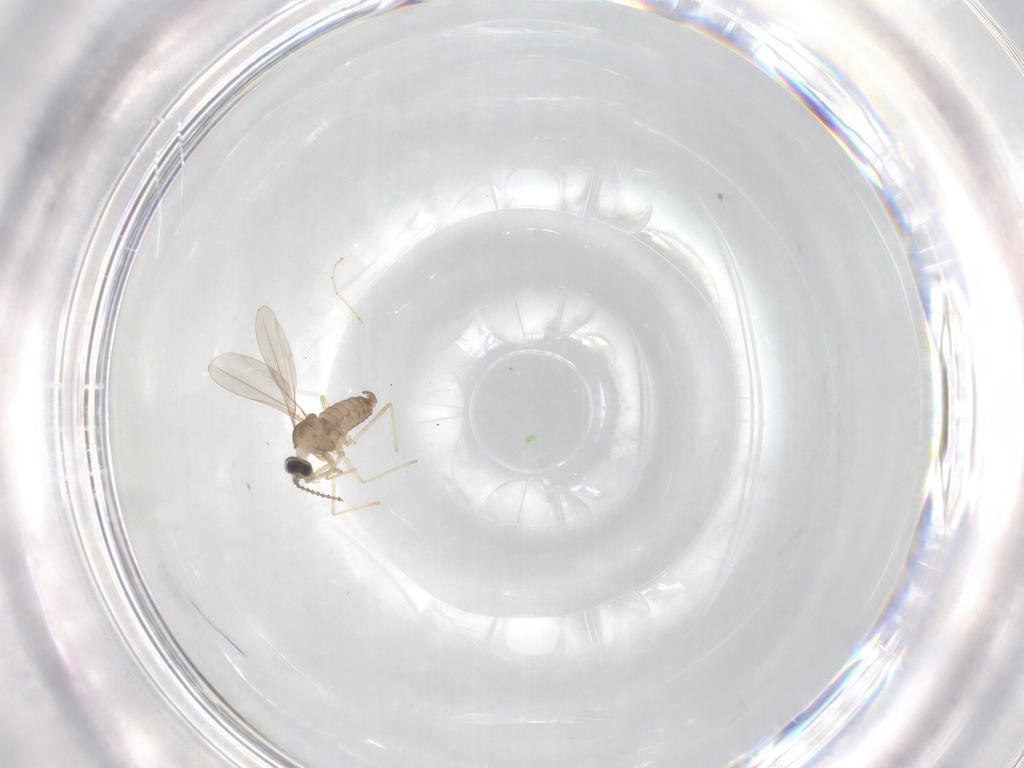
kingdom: Animalia
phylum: Arthropoda
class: Insecta
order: Diptera
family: Cecidomyiidae
